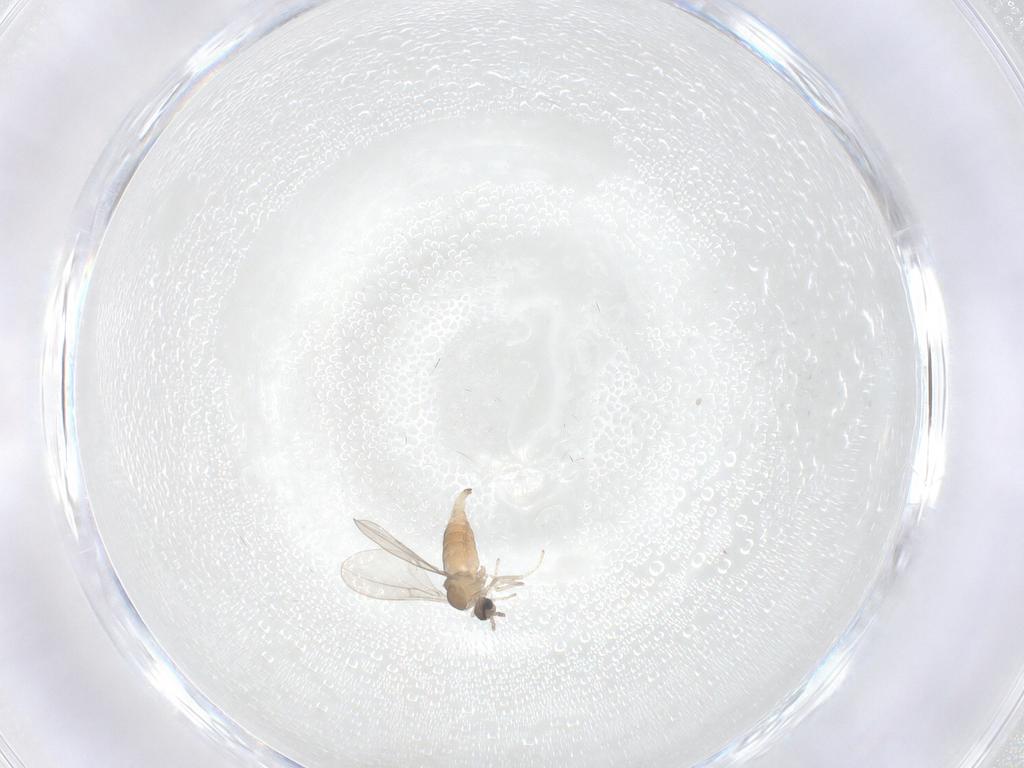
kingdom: Animalia
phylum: Arthropoda
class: Insecta
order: Diptera
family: Cecidomyiidae
